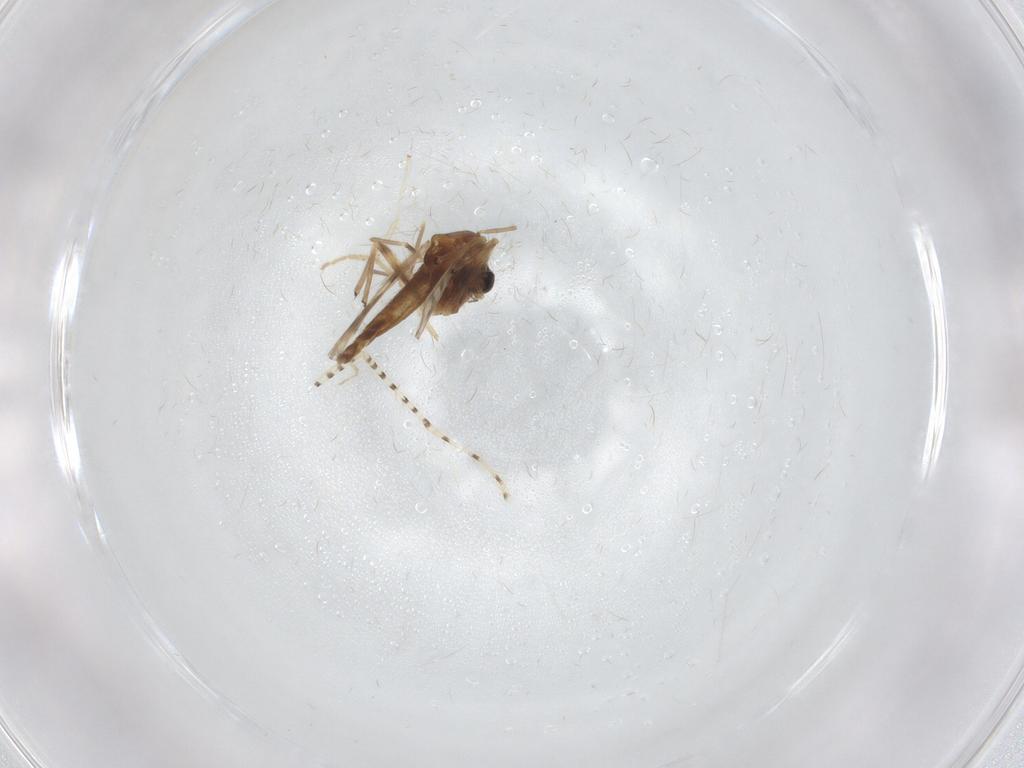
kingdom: Animalia
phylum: Arthropoda
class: Insecta
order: Diptera
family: Chironomidae
